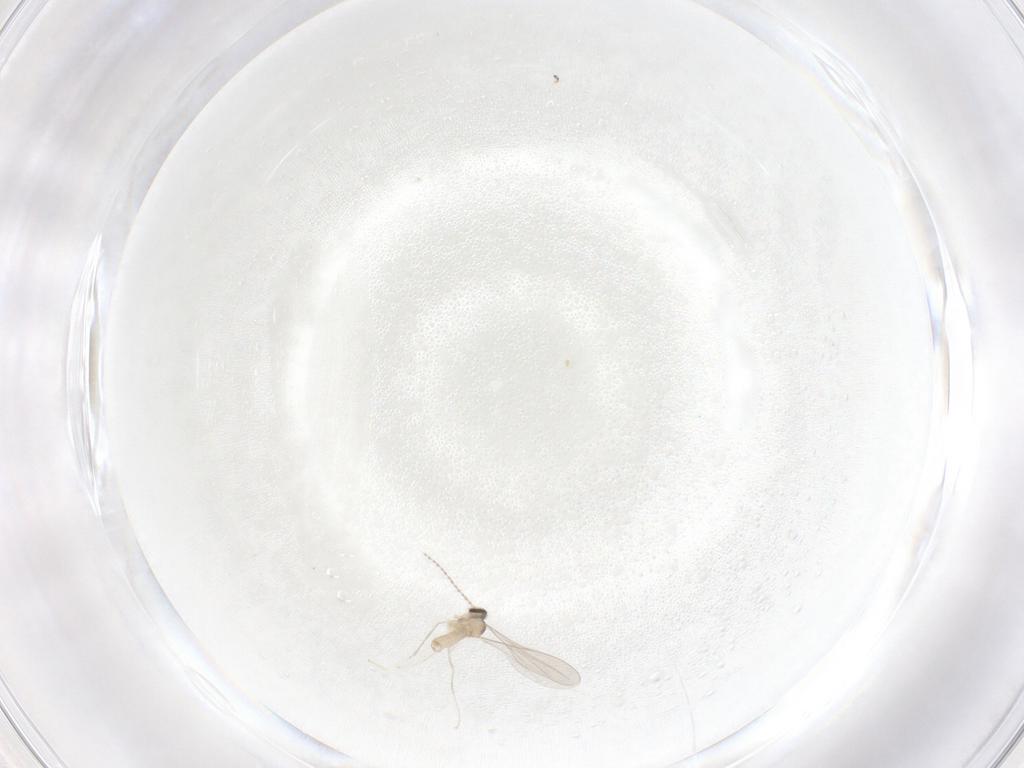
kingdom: Animalia
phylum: Arthropoda
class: Insecta
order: Diptera
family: Cecidomyiidae
